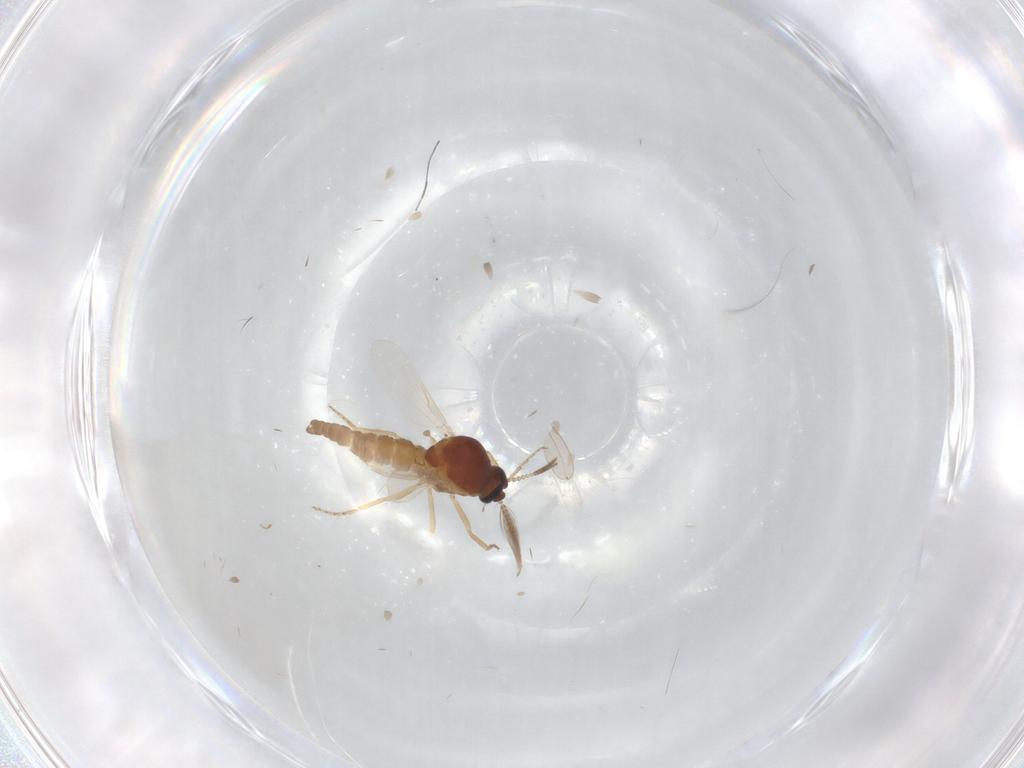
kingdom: Animalia
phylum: Arthropoda
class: Insecta
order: Diptera
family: Ceratopogonidae
